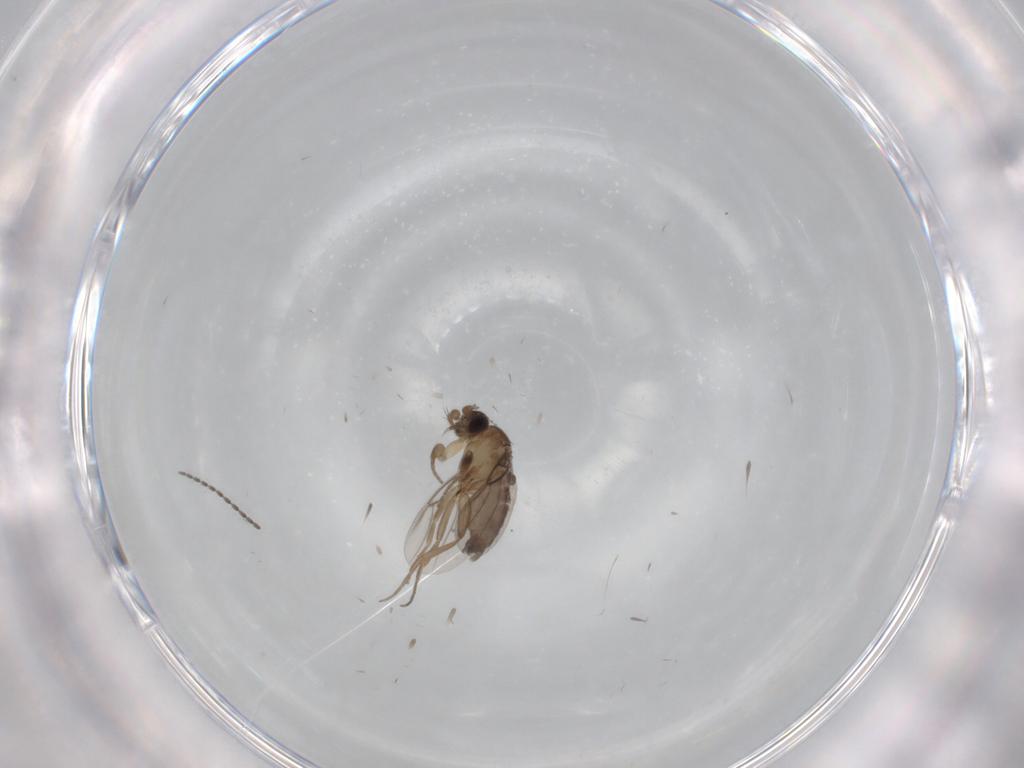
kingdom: Animalia
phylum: Arthropoda
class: Insecta
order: Diptera
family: Phoridae
